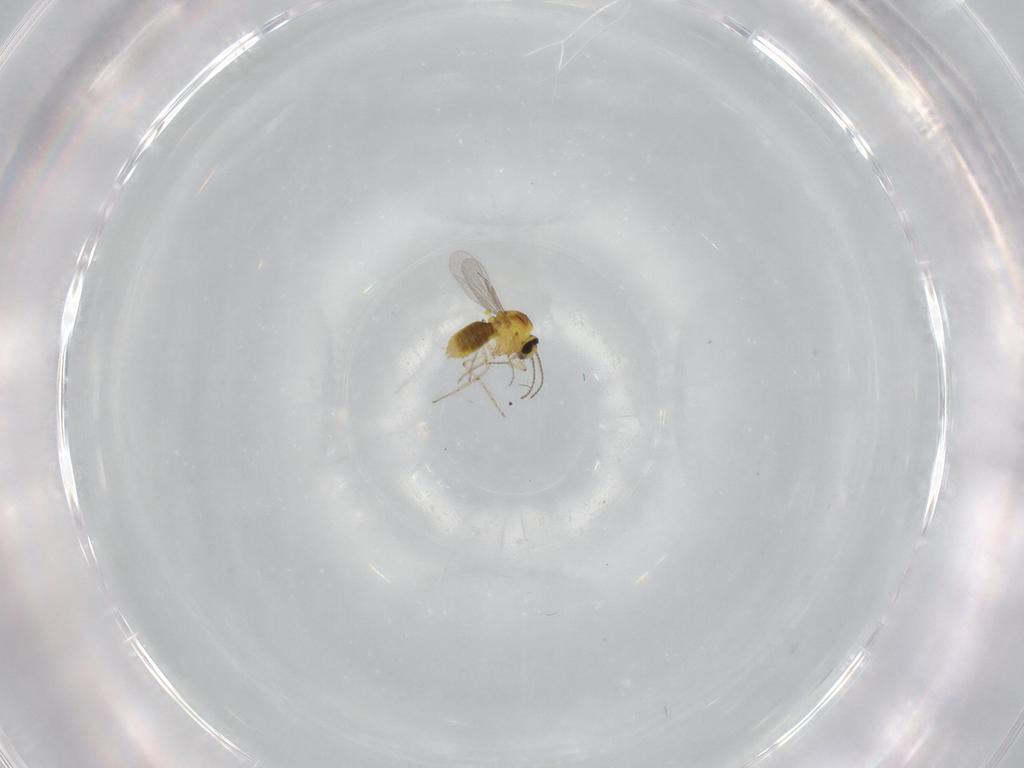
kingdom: Animalia
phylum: Arthropoda
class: Insecta
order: Diptera
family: Ceratopogonidae
